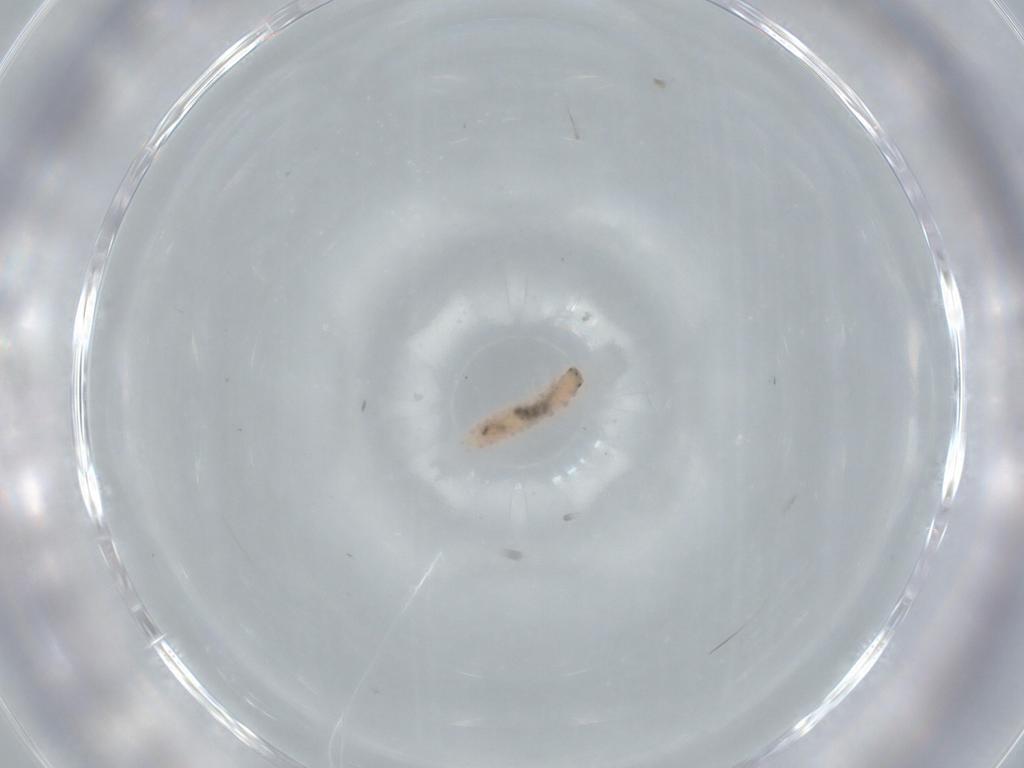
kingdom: Animalia
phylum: Arthropoda
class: Insecta
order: Coleoptera
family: Melyridae
